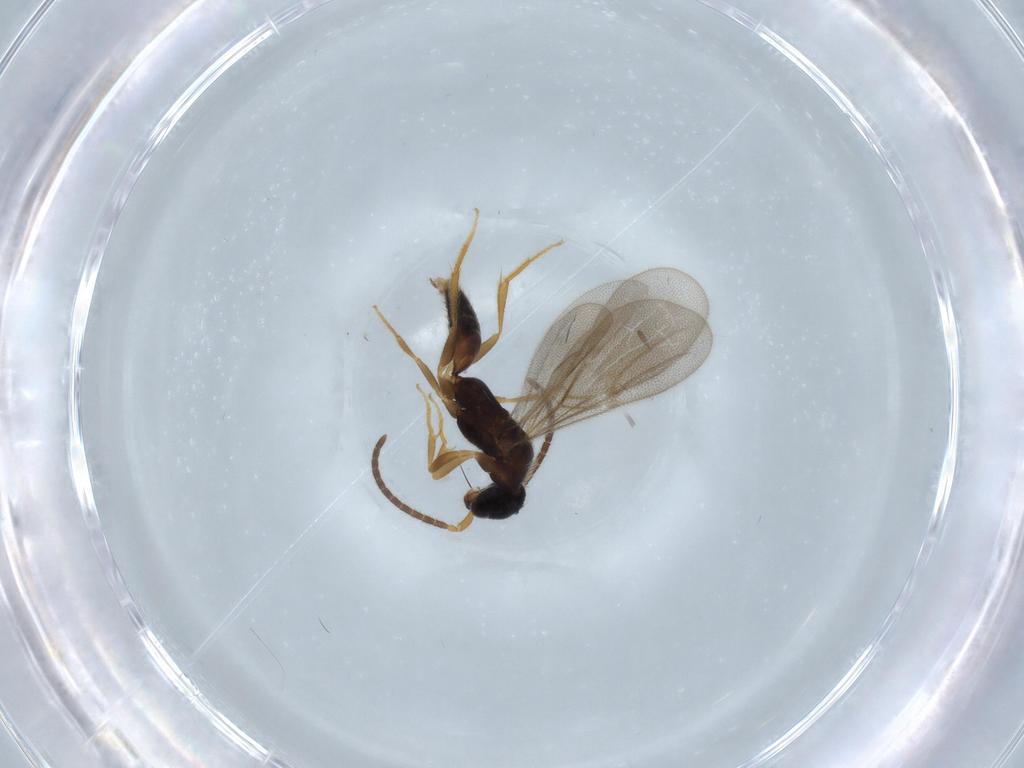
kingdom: Animalia
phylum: Arthropoda
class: Insecta
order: Hymenoptera
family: Bethylidae
